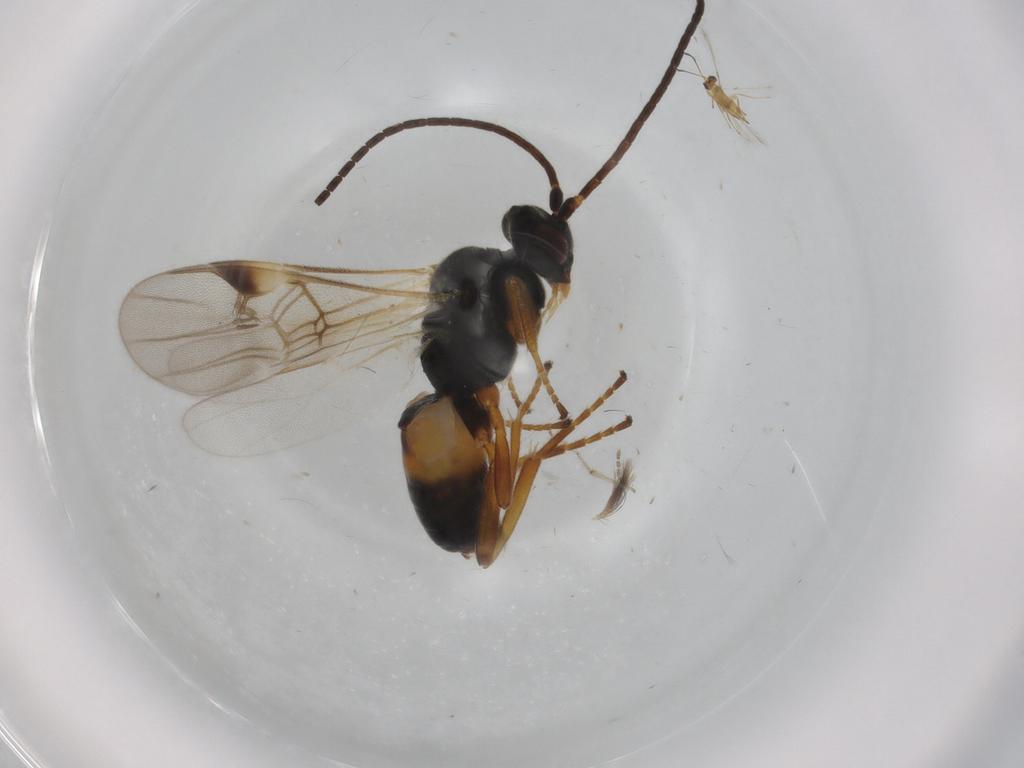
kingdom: Animalia
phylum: Arthropoda
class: Insecta
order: Hymenoptera
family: Braconidae
